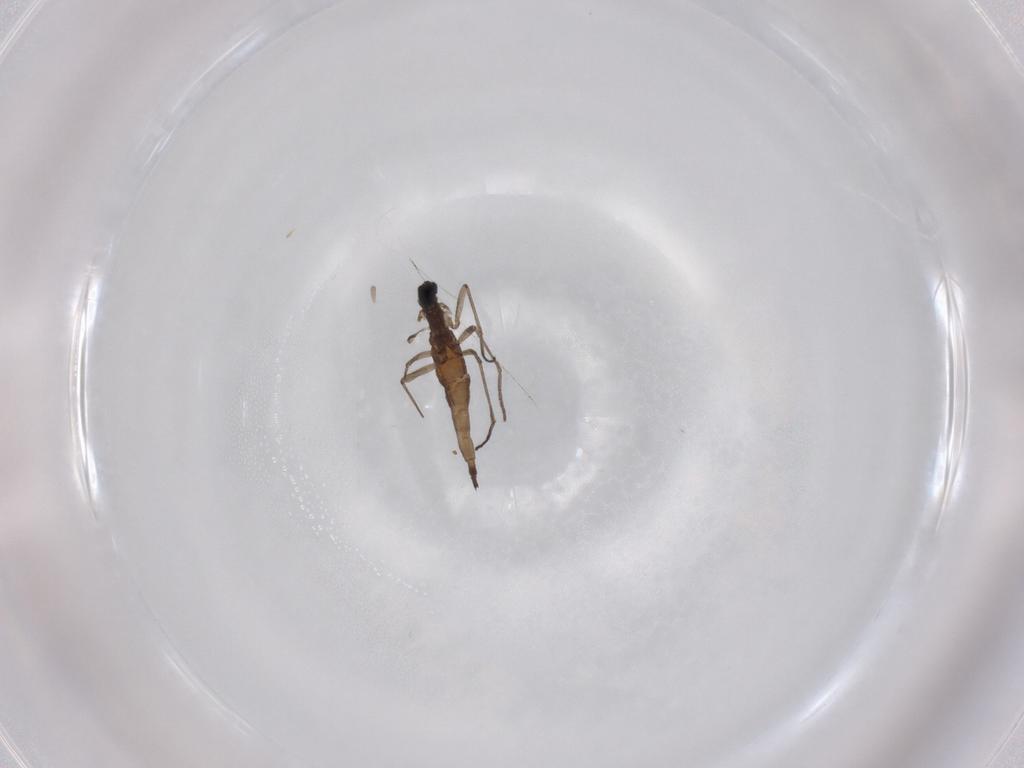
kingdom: Animalia
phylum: Arthropoda
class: Insecta
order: Diptera
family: Sciaridae
